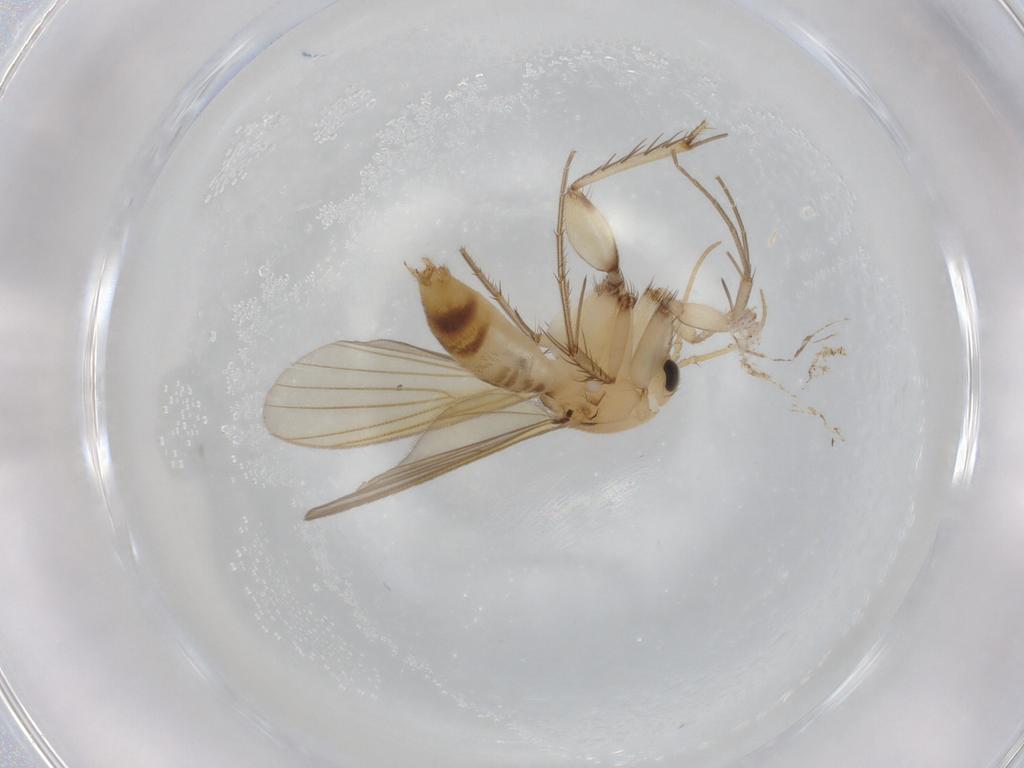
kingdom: Animalia
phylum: Arthropoda
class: Insecta
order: Diptera
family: Mycetophilidae
